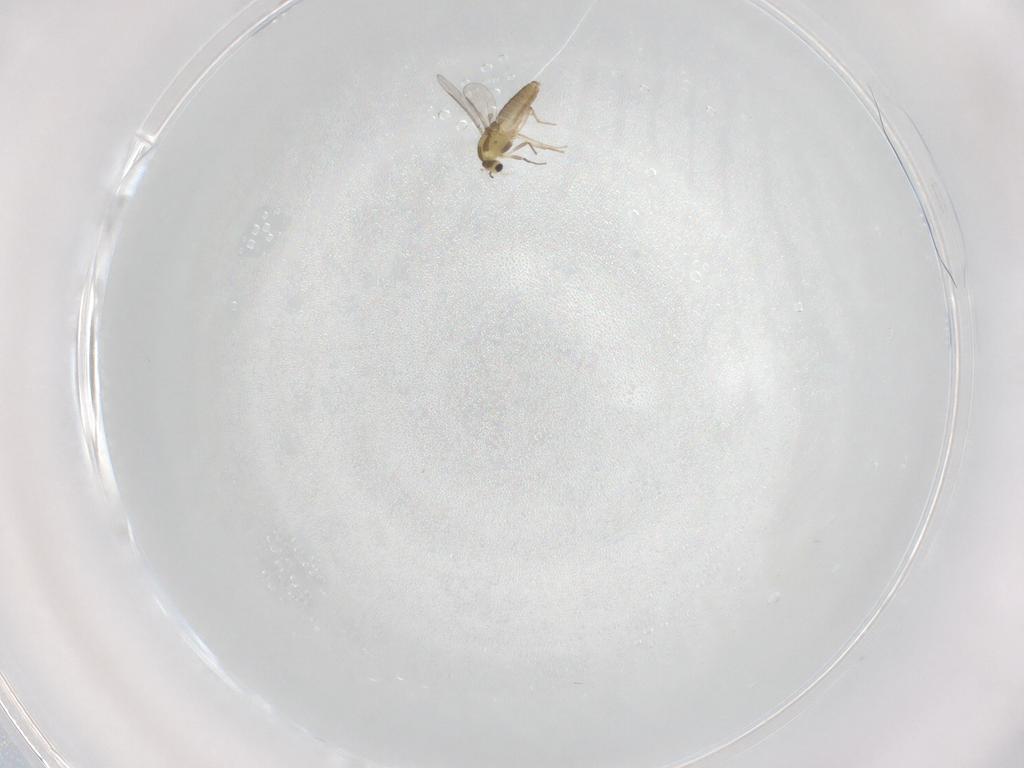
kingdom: Animalia
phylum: Arthropoda
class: Insecta
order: Diptera
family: Chironomidae
